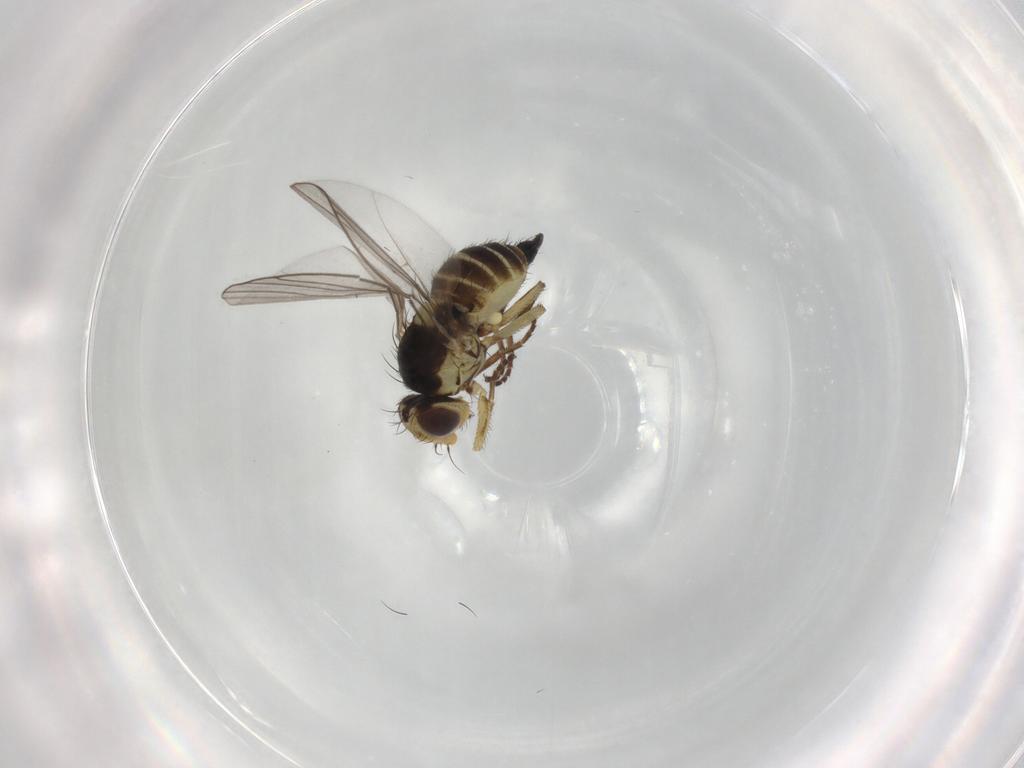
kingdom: Animalia
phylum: Arthropoda
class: Insecta
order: Diptera
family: Agromyzidae
